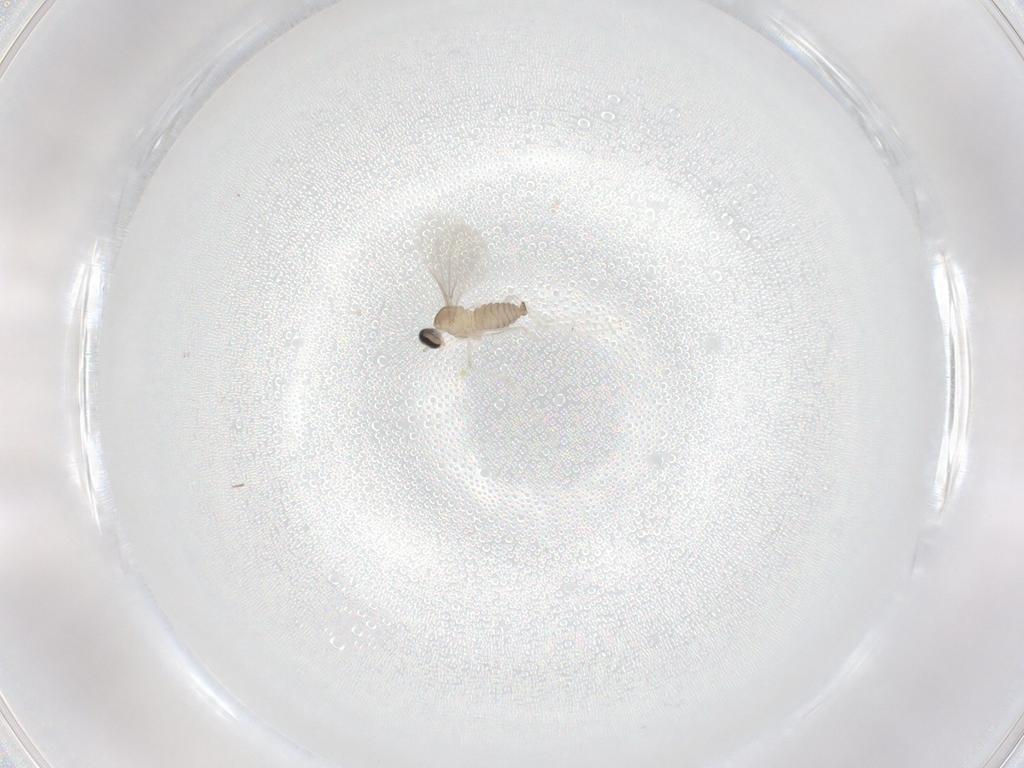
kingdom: Animalia
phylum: Arthropoda
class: Insecta
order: Diptera
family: Cecidomyiidae
